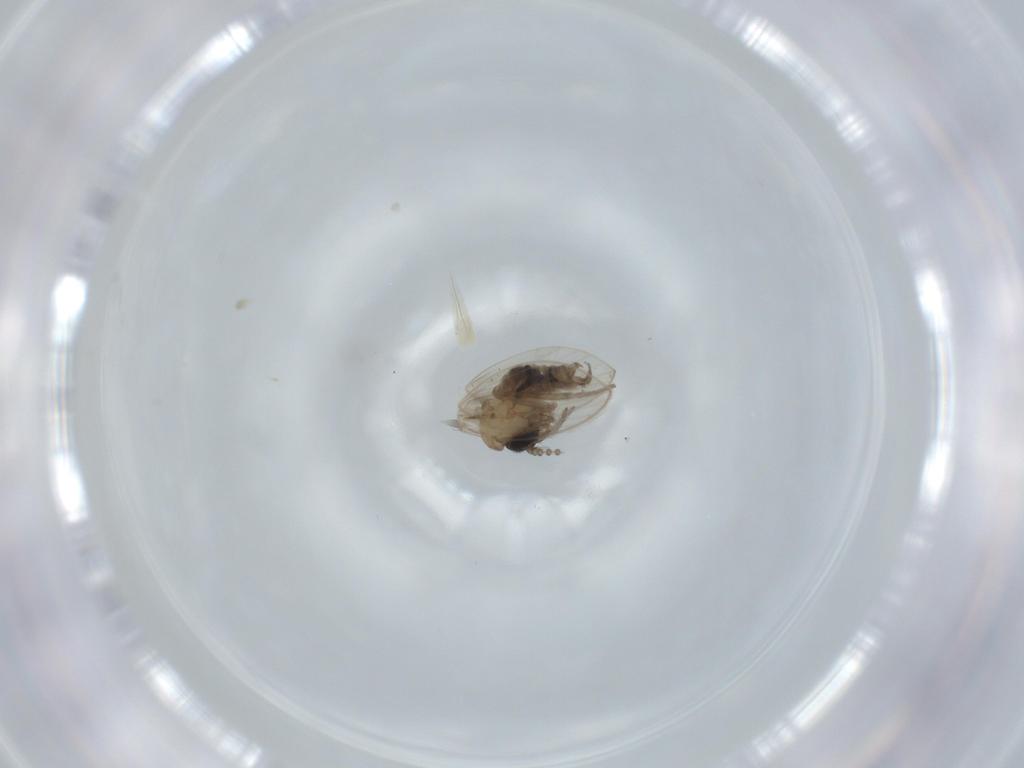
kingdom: Animalia
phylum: Arthropoda
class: Insecta
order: Diptera
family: Psychodidae
